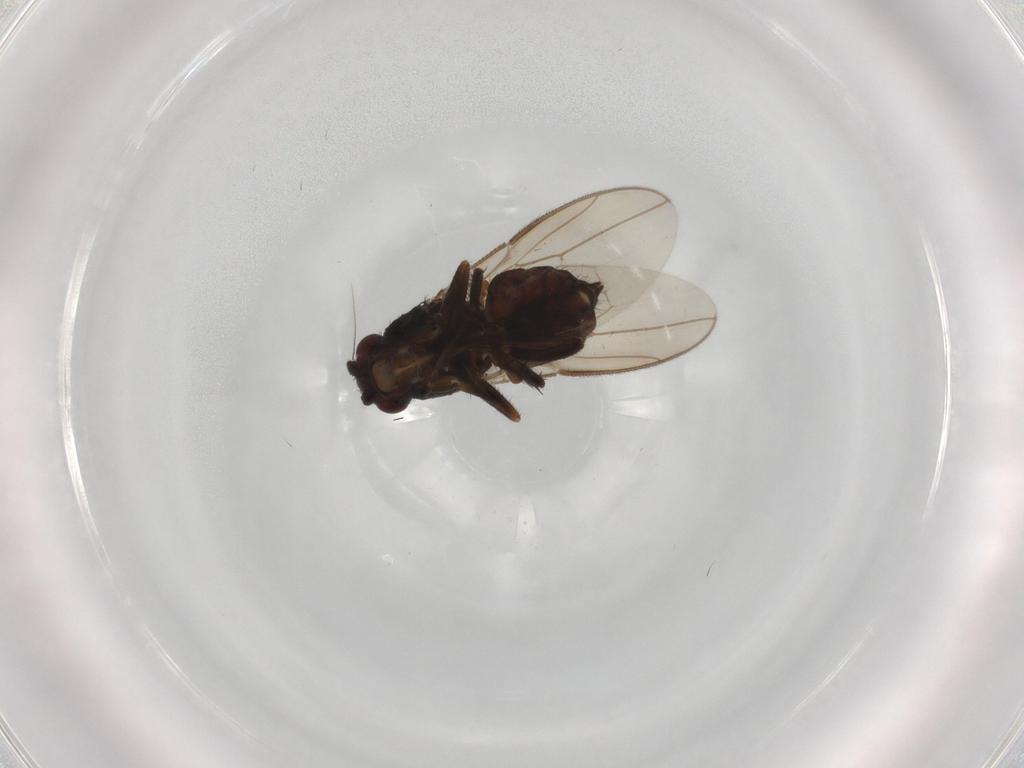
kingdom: Animalia
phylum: Arthropoda
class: Insecta
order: Diptera
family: Sphaeroceridae
